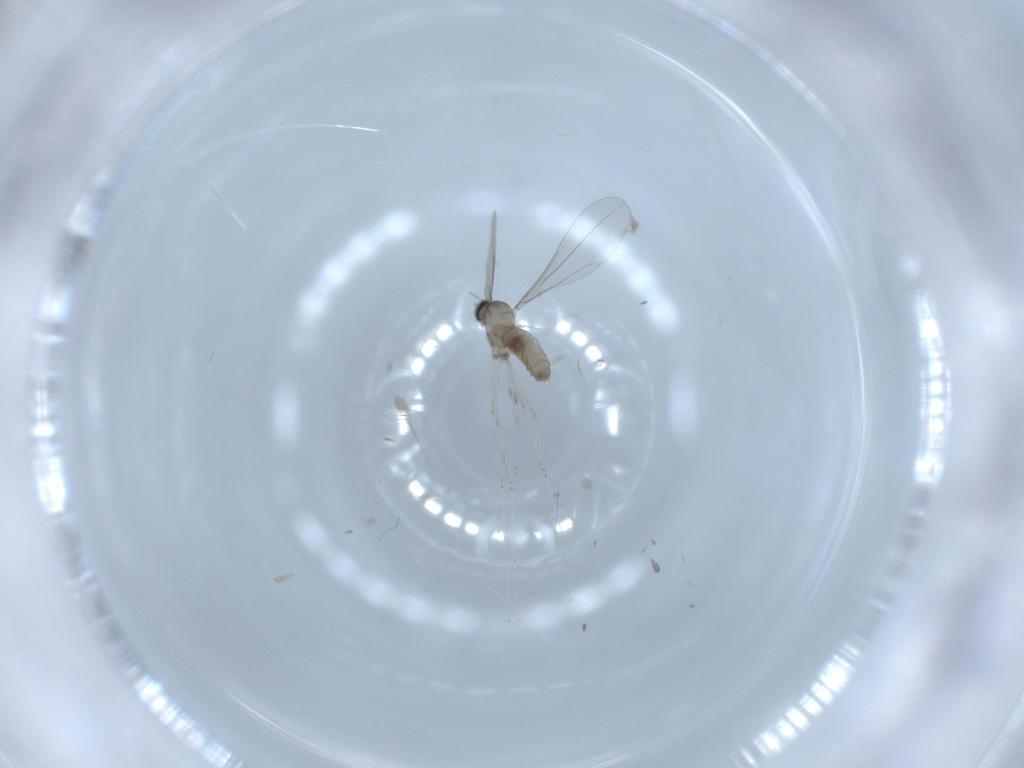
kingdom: Animalia
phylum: Arthropoda
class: Insecta
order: Diptera
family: Cecidomyiidae
